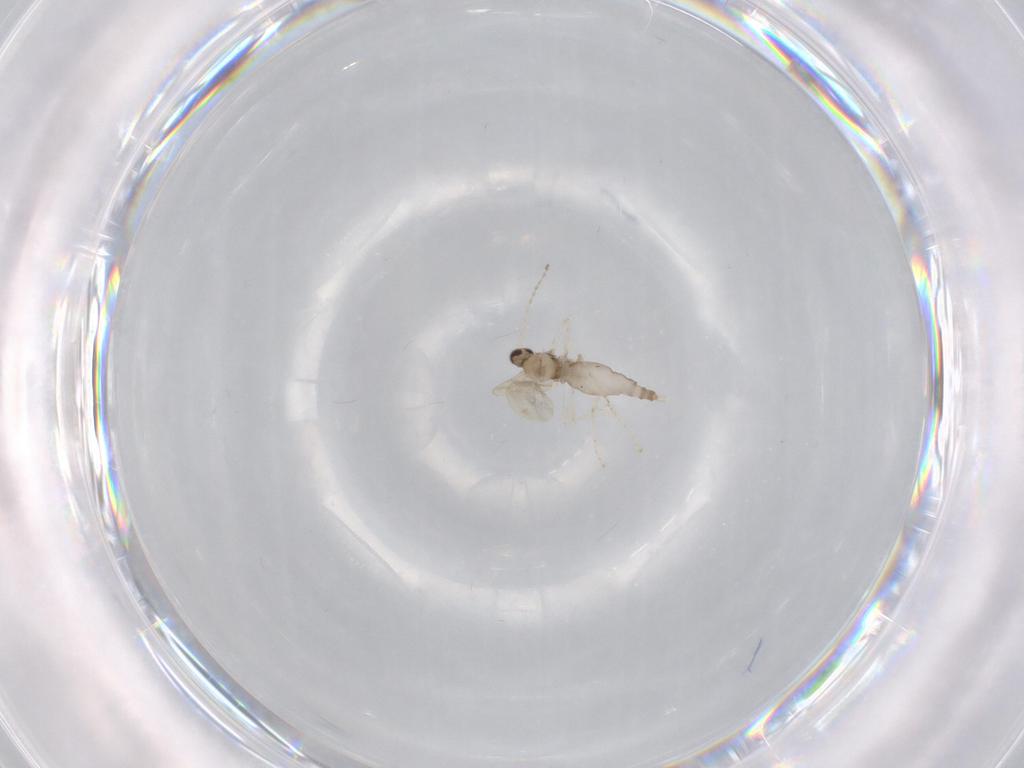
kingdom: Animalia
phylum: Arthropoda
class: Insecta
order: Diptera
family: Cecidomyiidae
